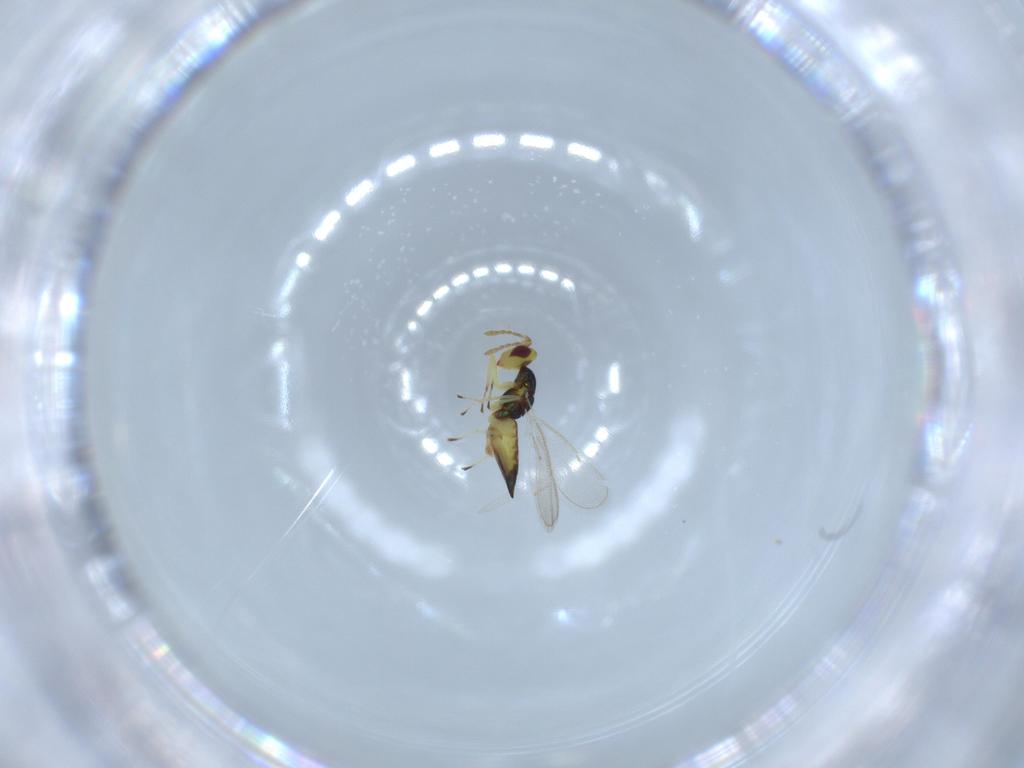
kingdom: Animalia
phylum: Arthropoda
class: Insecta
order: Hymenoptera
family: Eulophidae
